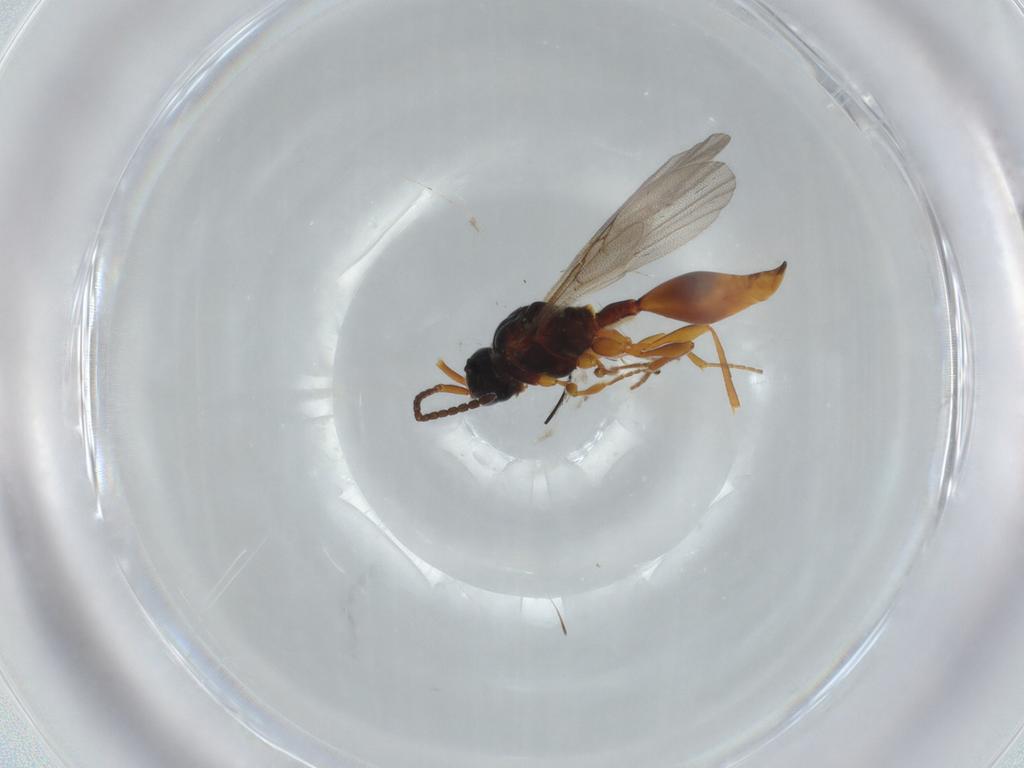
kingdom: Animalia
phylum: Arthropoda
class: Insecta
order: Hymenoptera
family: Diapriidae
